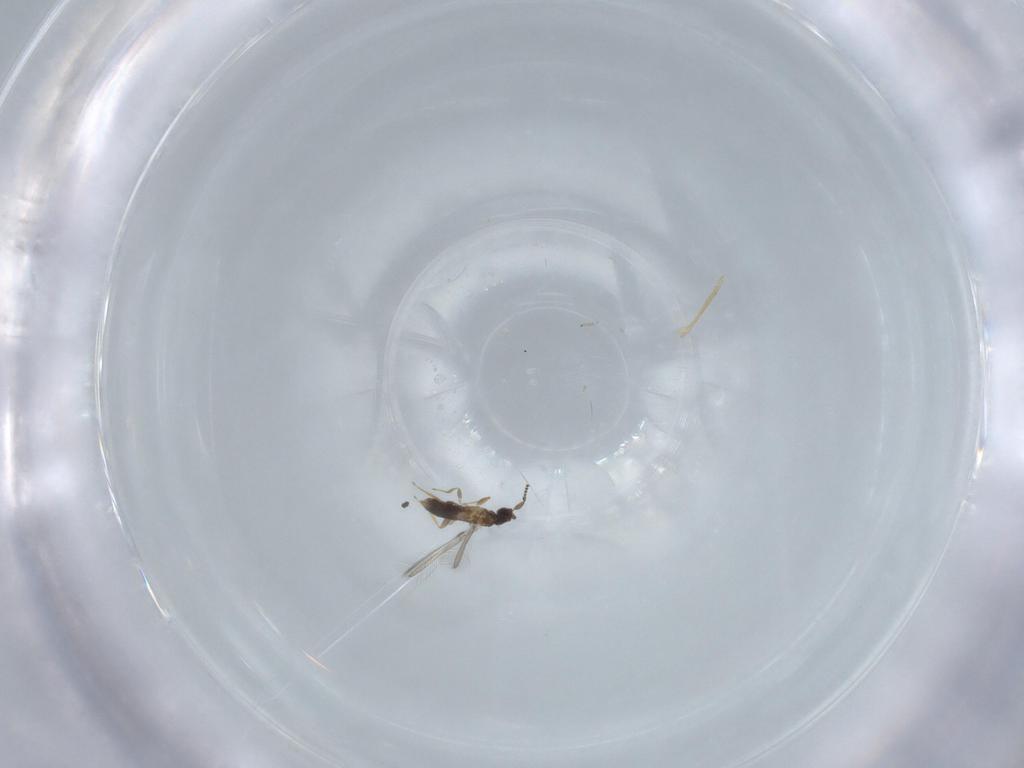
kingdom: Animalia
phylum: Arthropoda
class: Insecta
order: Hymenoptera
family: Mymaridae
